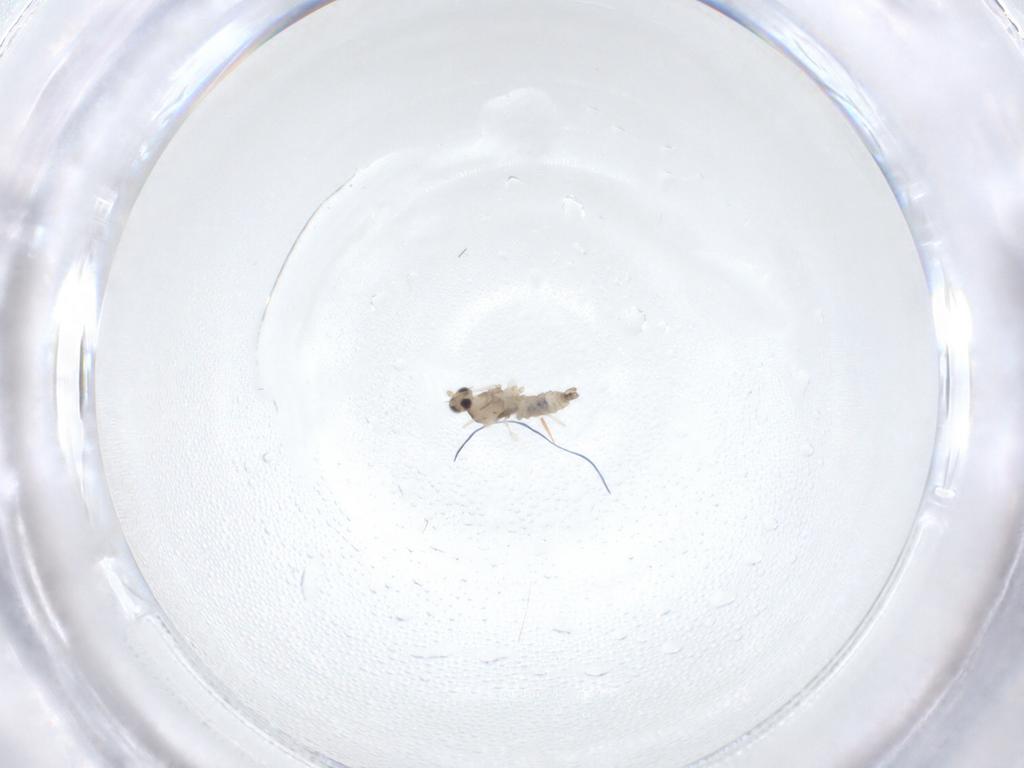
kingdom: Animalia
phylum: Arthropoda
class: Insecta
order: Diptera
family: Cecidomyiidae
